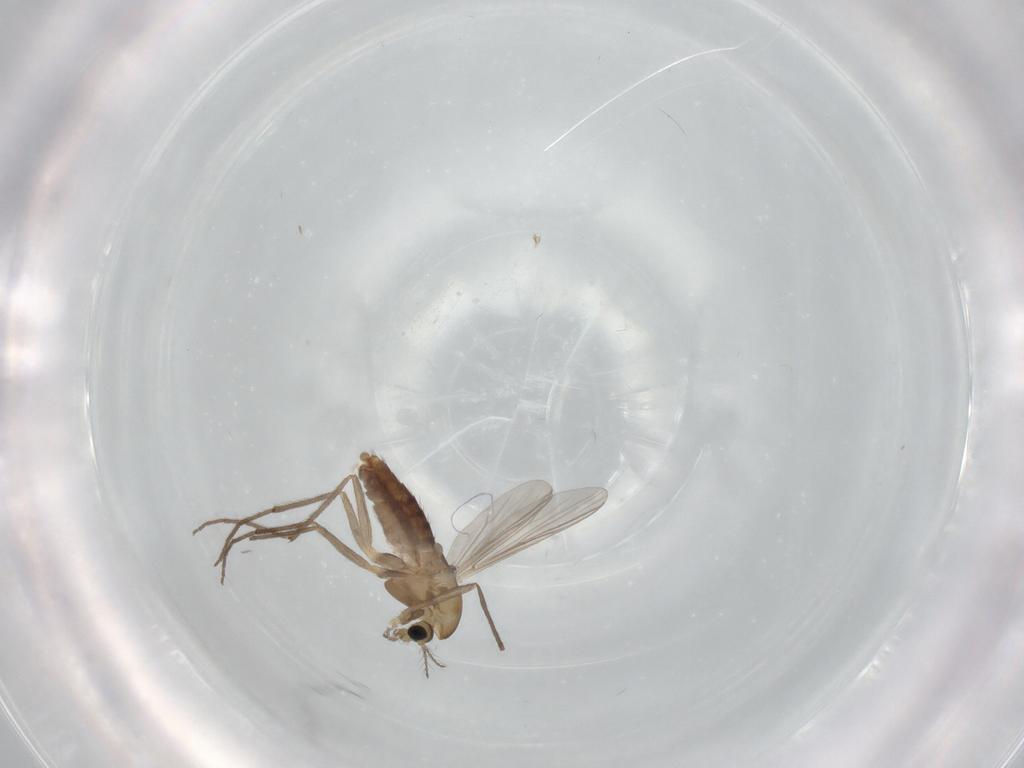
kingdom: Animalia
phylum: Arthropoda
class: Insecta
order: Diptera
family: Chironomidae
